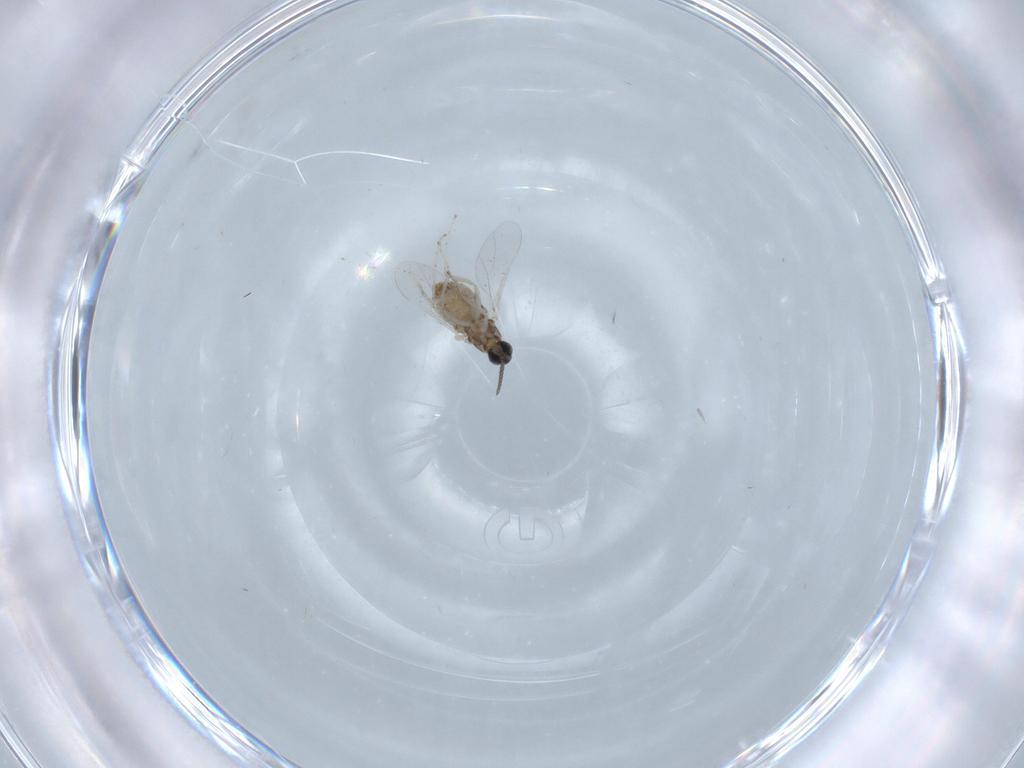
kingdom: Animalia
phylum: Arthropoda
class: Insecta
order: Diptera
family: Cecidomyiidae
